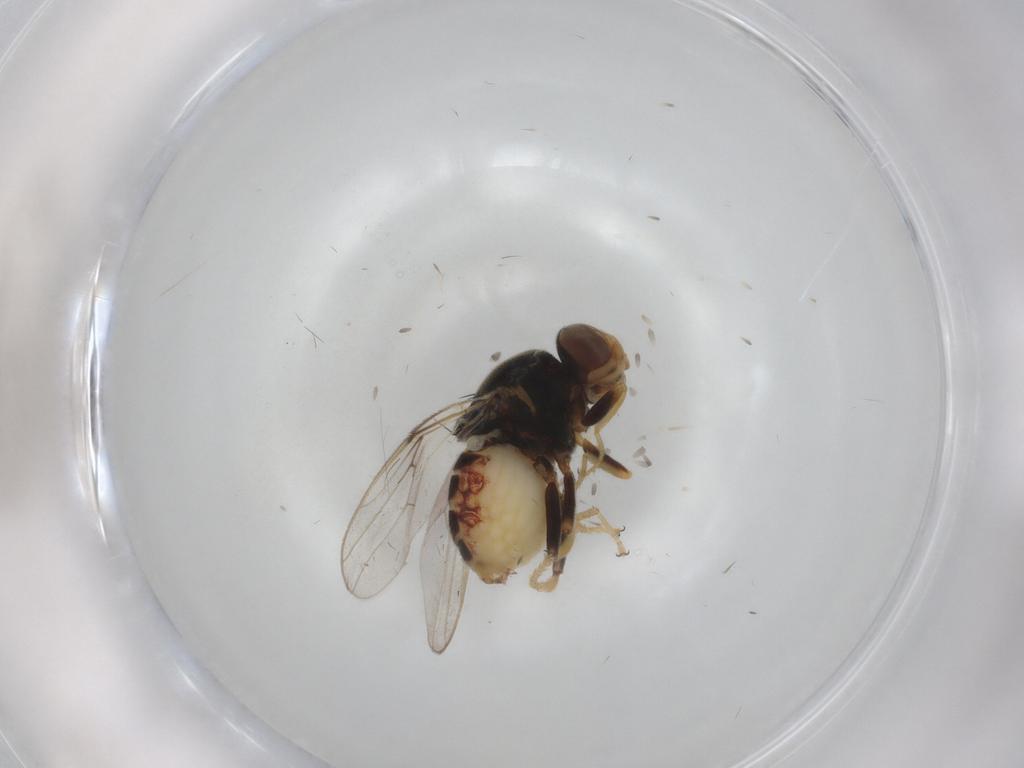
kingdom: Animalia
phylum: Arthropoda
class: Insecta
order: Diptera
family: Chloropidae
